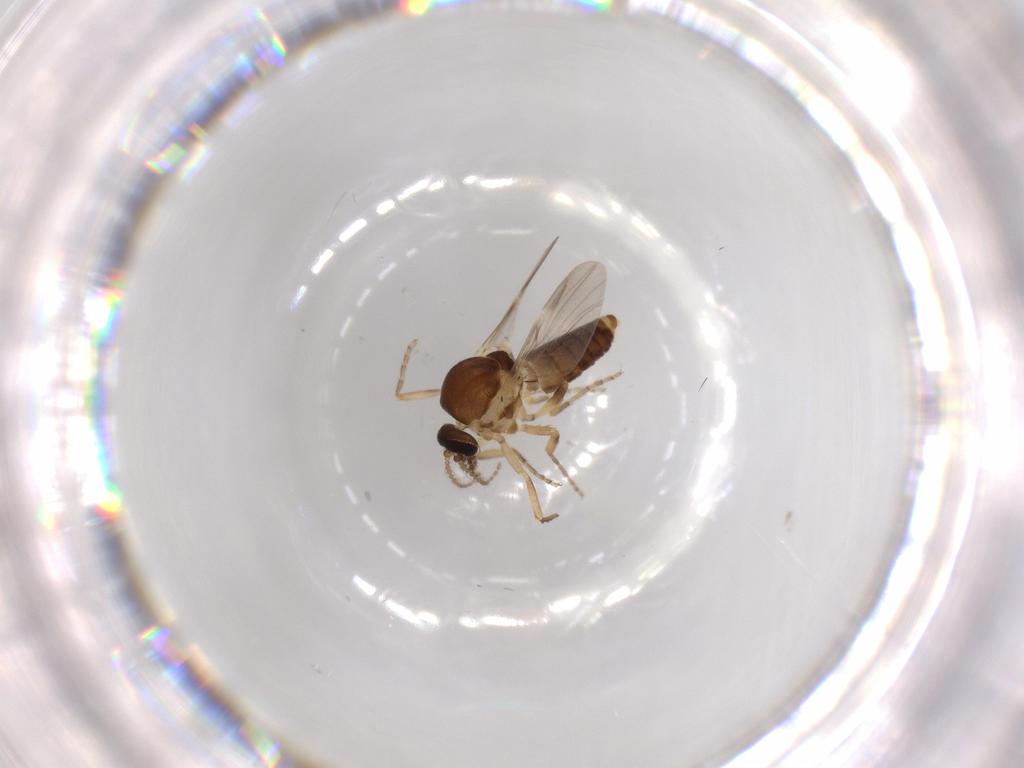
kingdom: Animalia
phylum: Arthropoda
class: Insecta
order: Diptera
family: Ceratopogonidae
